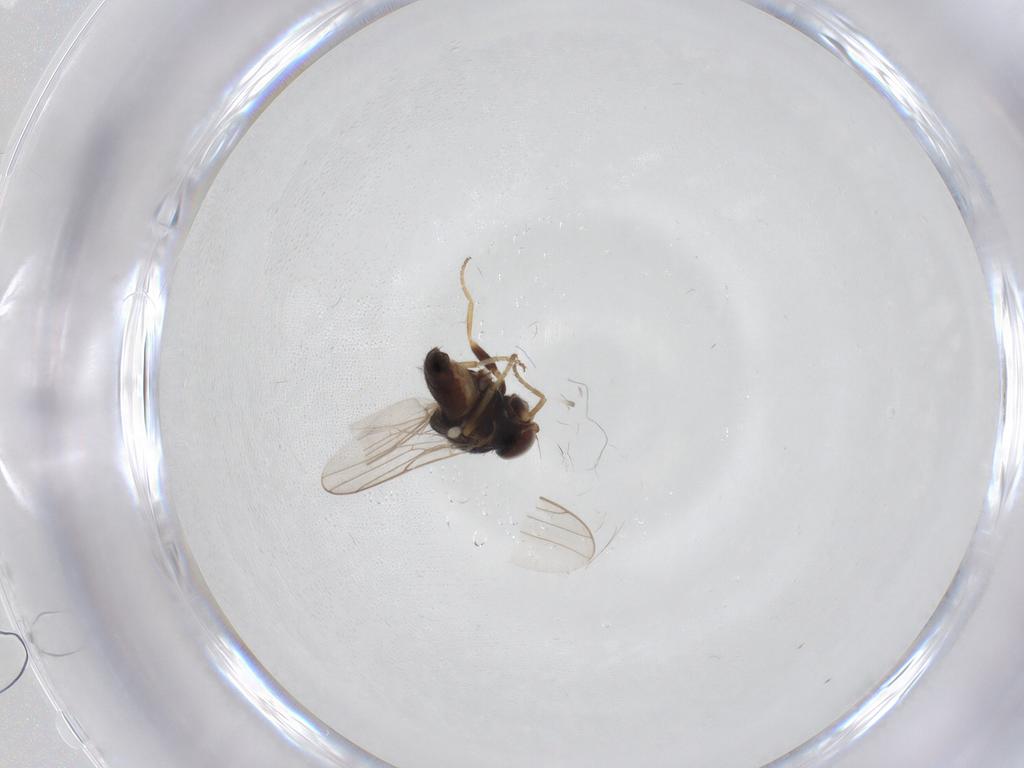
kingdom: Animalia
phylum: Arthropoda
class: Insecta
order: Diptera
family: Chloropidae
